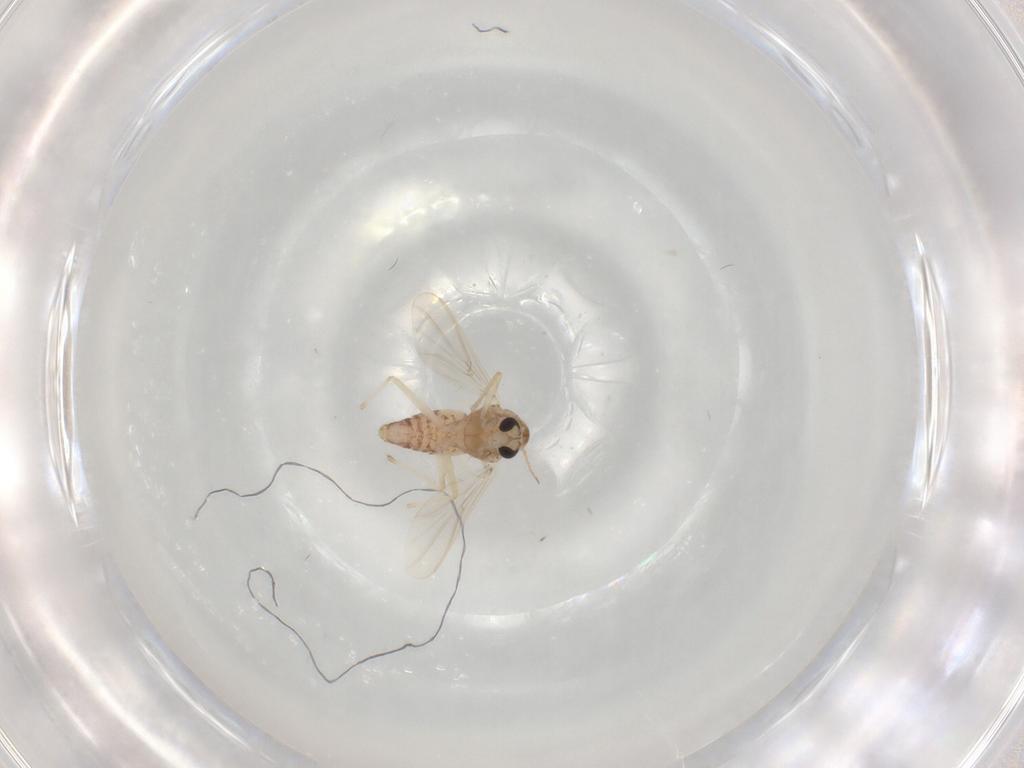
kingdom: Animalia
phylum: Arthropoda
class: Insecta
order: Diptera
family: Chironomidae
